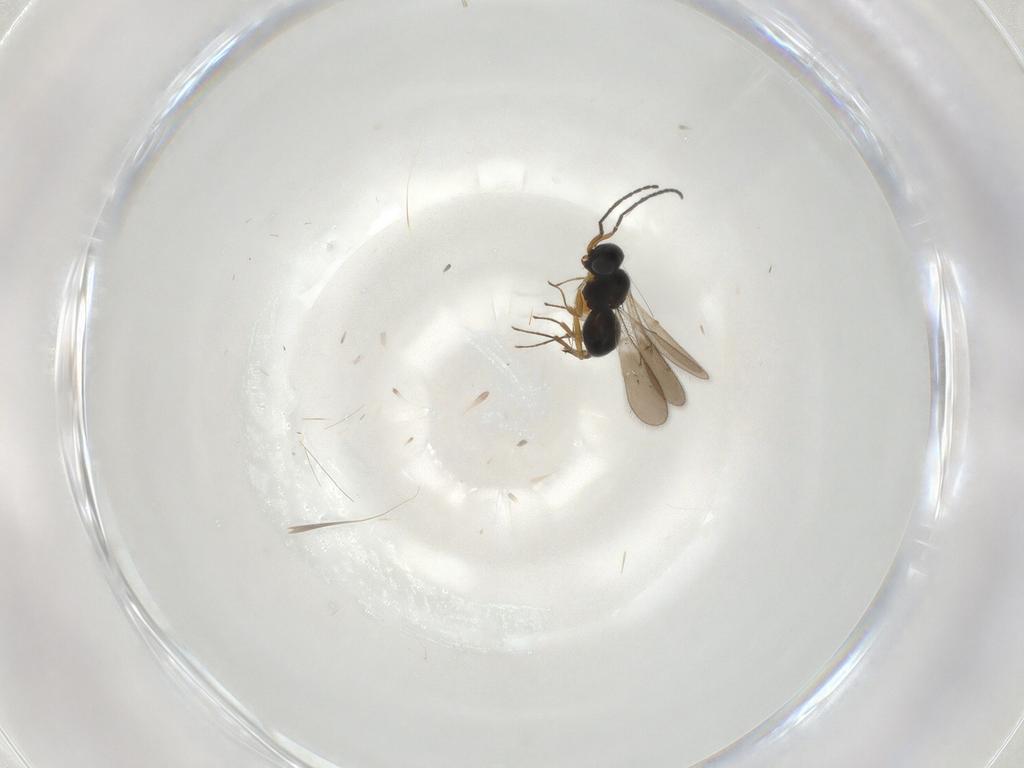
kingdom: Animalia
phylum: Arthropoda
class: Insecta
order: Hymenoptera
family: Scelionidae
